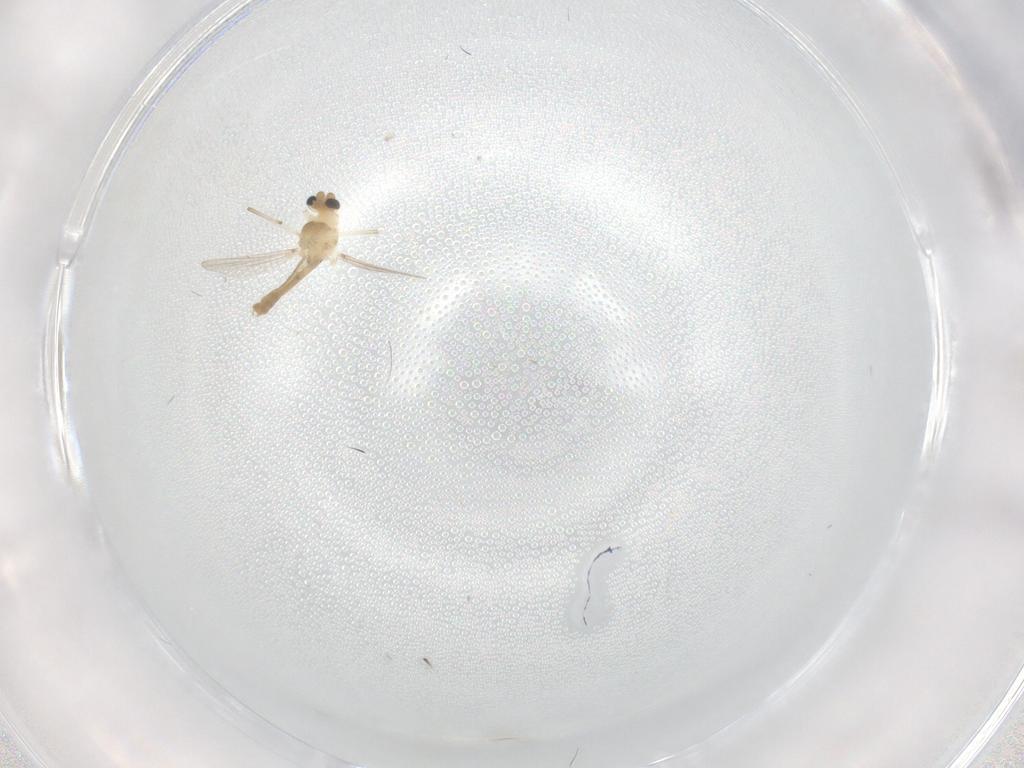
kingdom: Animalia
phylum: Arthropoda
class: Insecta
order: Diptera
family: Chironomidae
